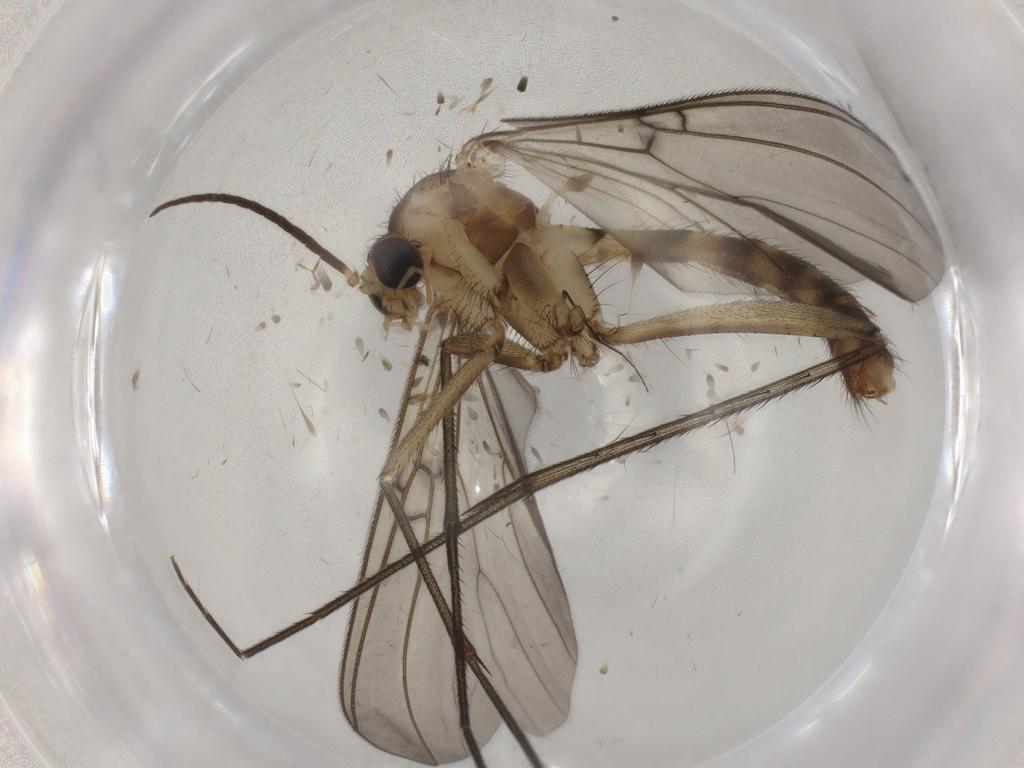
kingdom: Animalia
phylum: Arthropoda
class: Insecta
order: Diptera
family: Mycetophilidae
